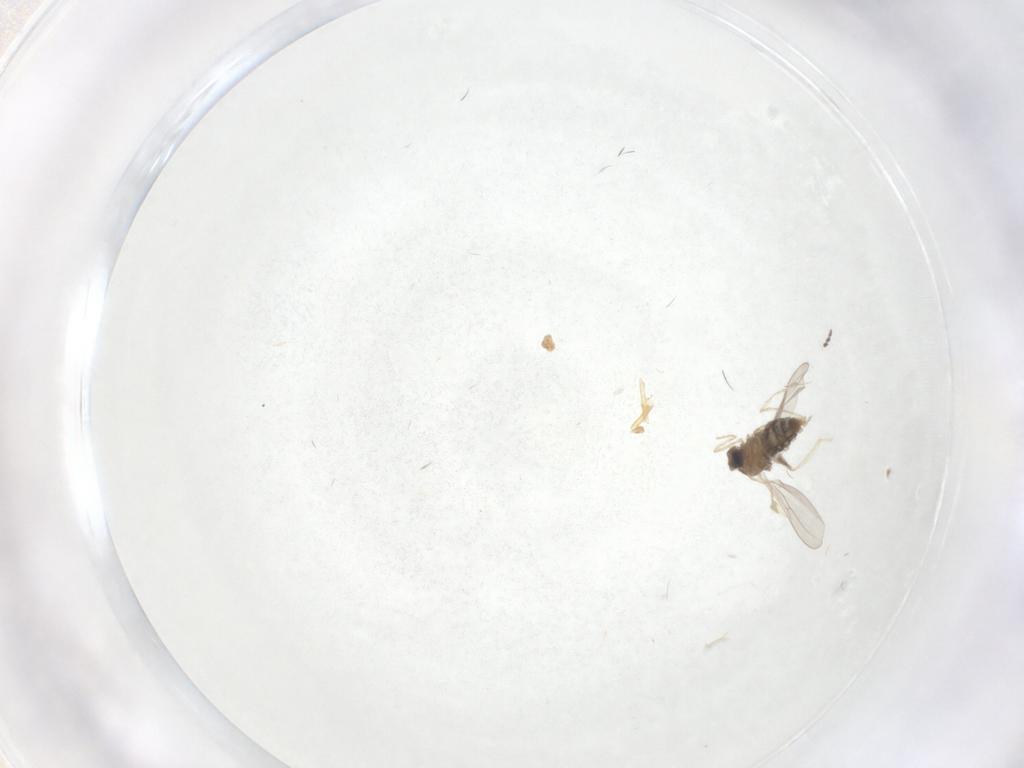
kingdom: Animalia
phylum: Arthropoda
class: Insecta
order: Diptera
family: Cecidomyiidae
